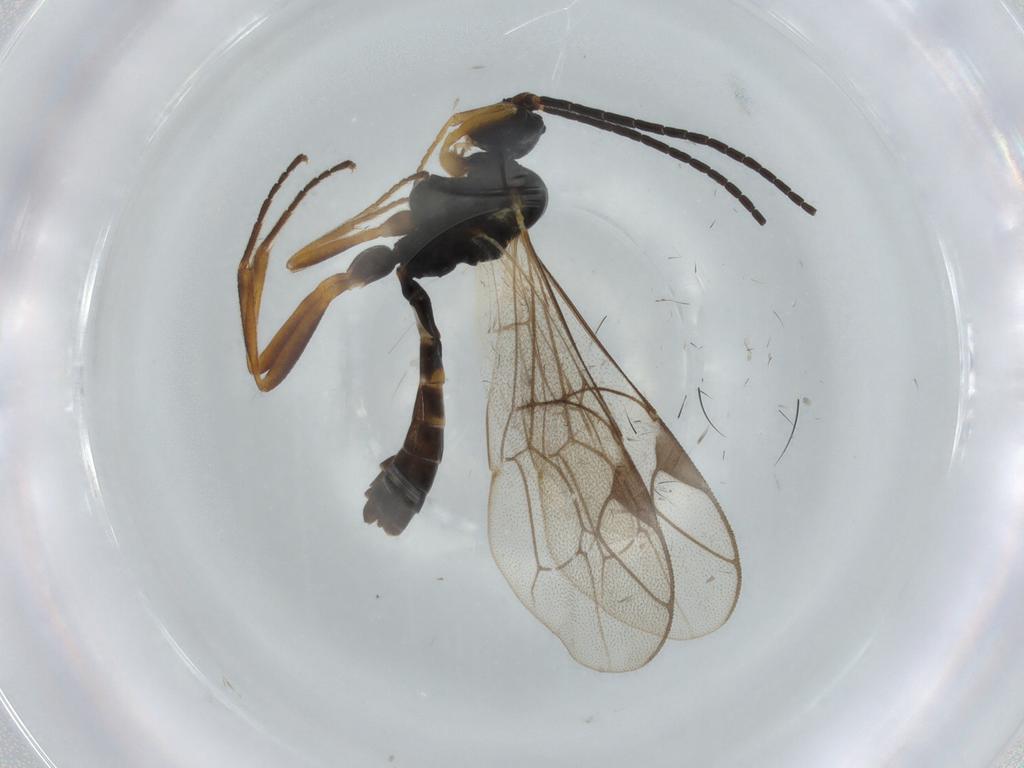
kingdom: Animalia
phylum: Arthropoda
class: Insecta
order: Hymenoptera
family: Ichneumonidae
